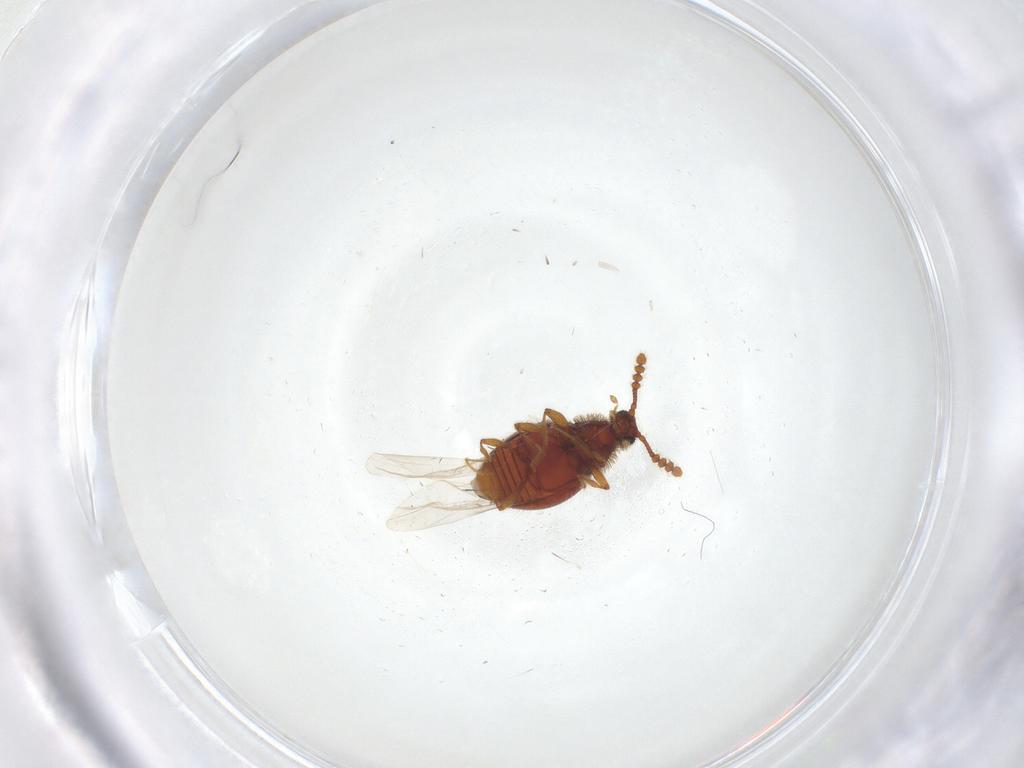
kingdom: Animalia
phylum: Arthropoda
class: Insecta
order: Coleoptera
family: Staphylinidae
